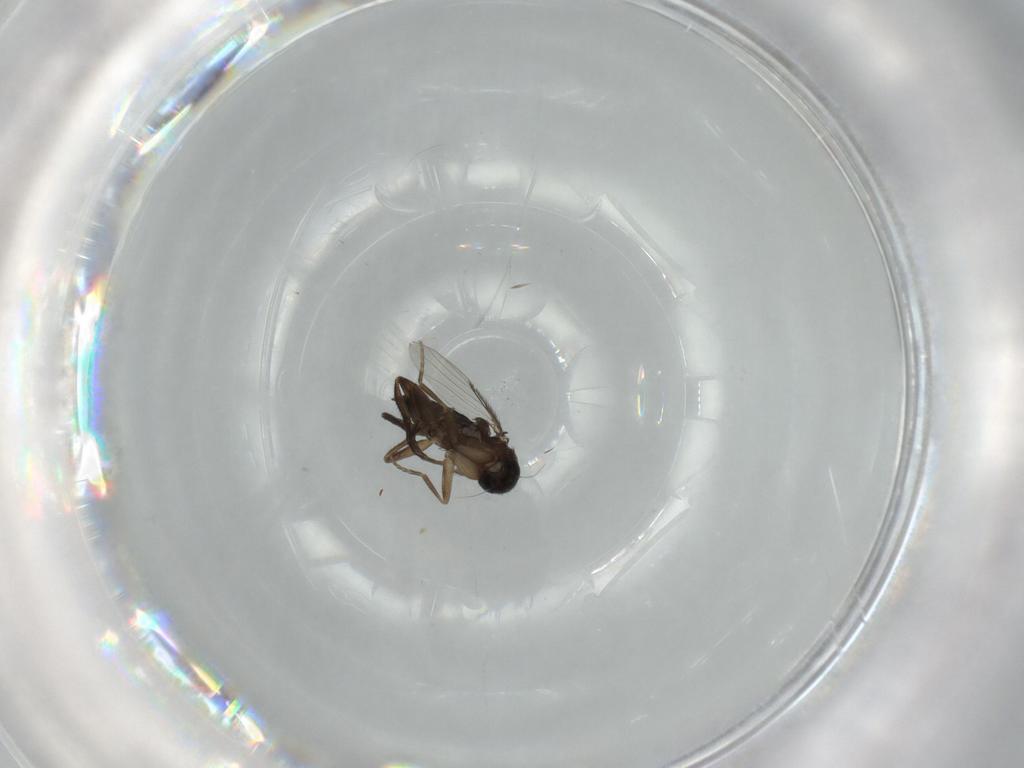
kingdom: Animalia
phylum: Arthropoda
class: Insecta
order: Diptera
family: Phoridae
